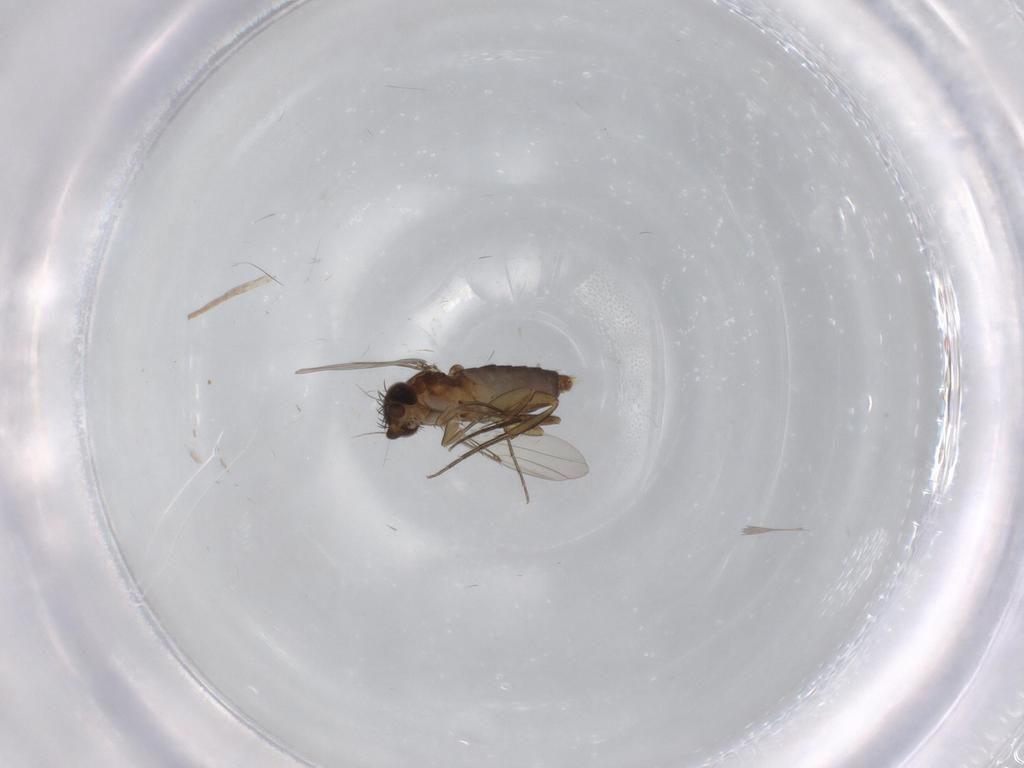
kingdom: Animalia
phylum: Arthropoda
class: Insecta
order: Diptera
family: Phoridae
